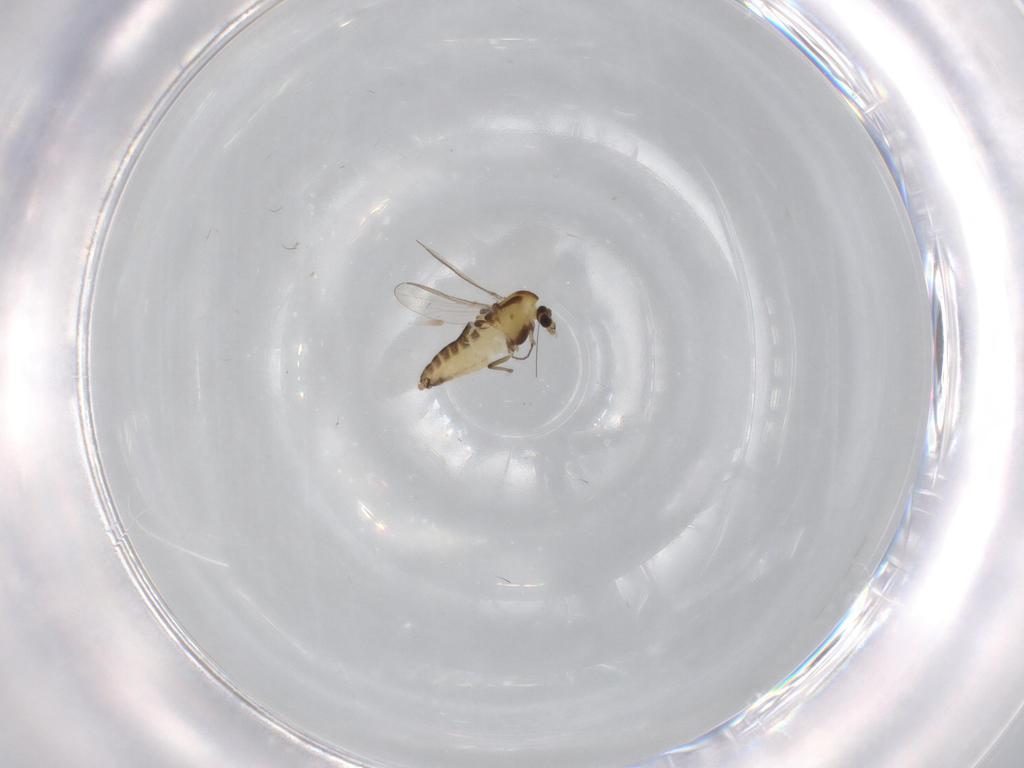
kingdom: Animalia
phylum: Arthropoda
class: Insecta
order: Diptera
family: Chironomidae
